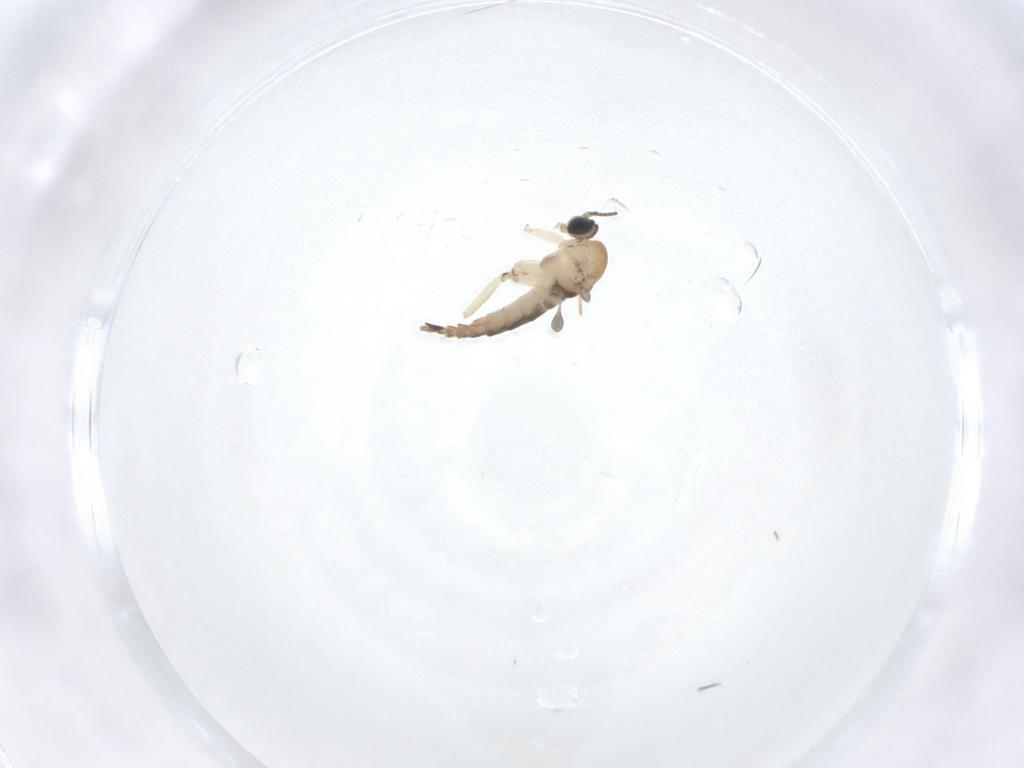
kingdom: Animalia
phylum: Arthropoda
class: Insecta
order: Diptera
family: Sciaridae
